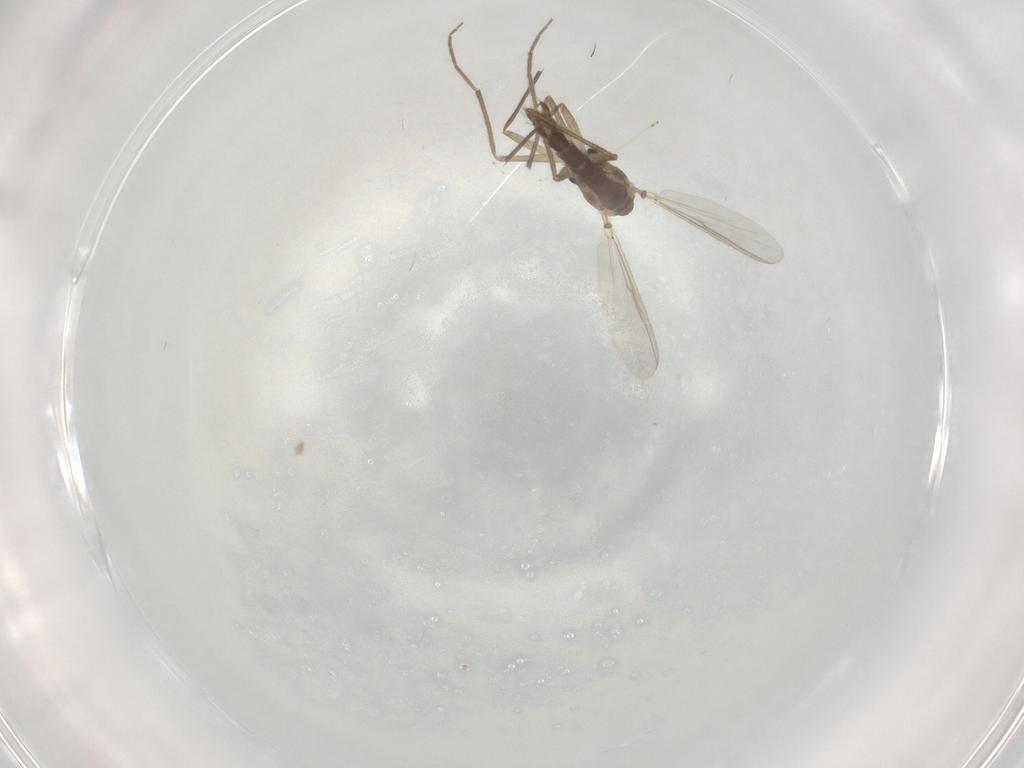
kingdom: Animalia
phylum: Arthropoda
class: Insecta
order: Diptera
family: Chironomidae
